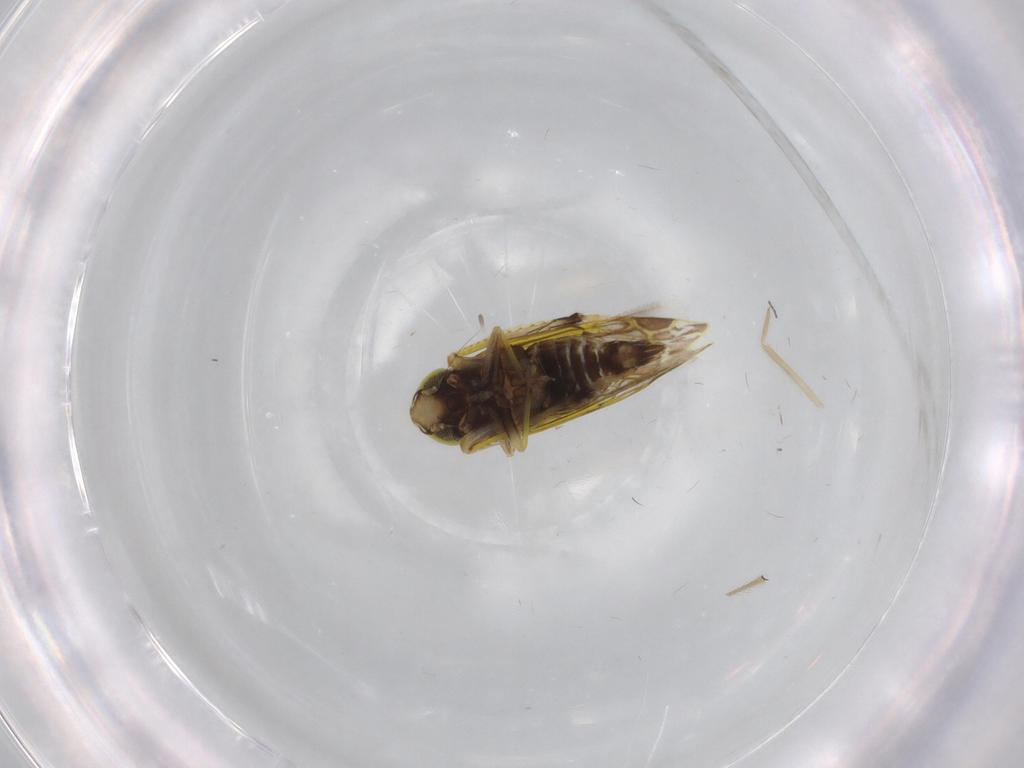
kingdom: Animalia
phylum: Arthropoda
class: Insecta
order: Hemiptera
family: Cicadellidae
